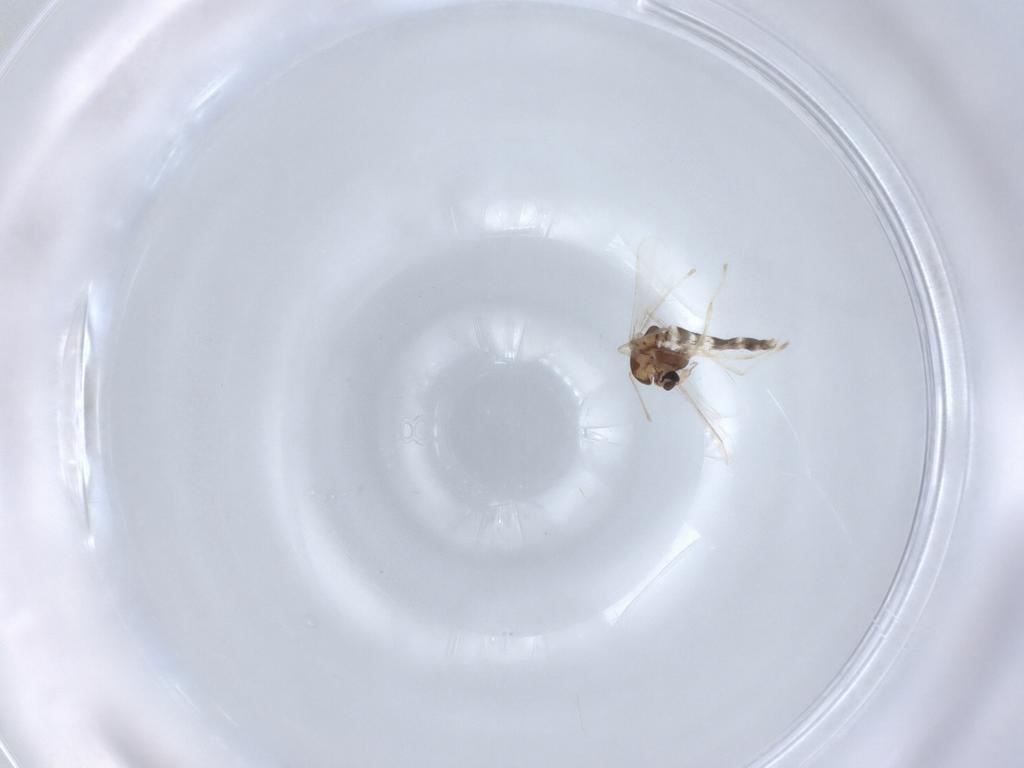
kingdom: Animalia
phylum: Arthropoda
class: Insecta
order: Diptera
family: Chironomidae
